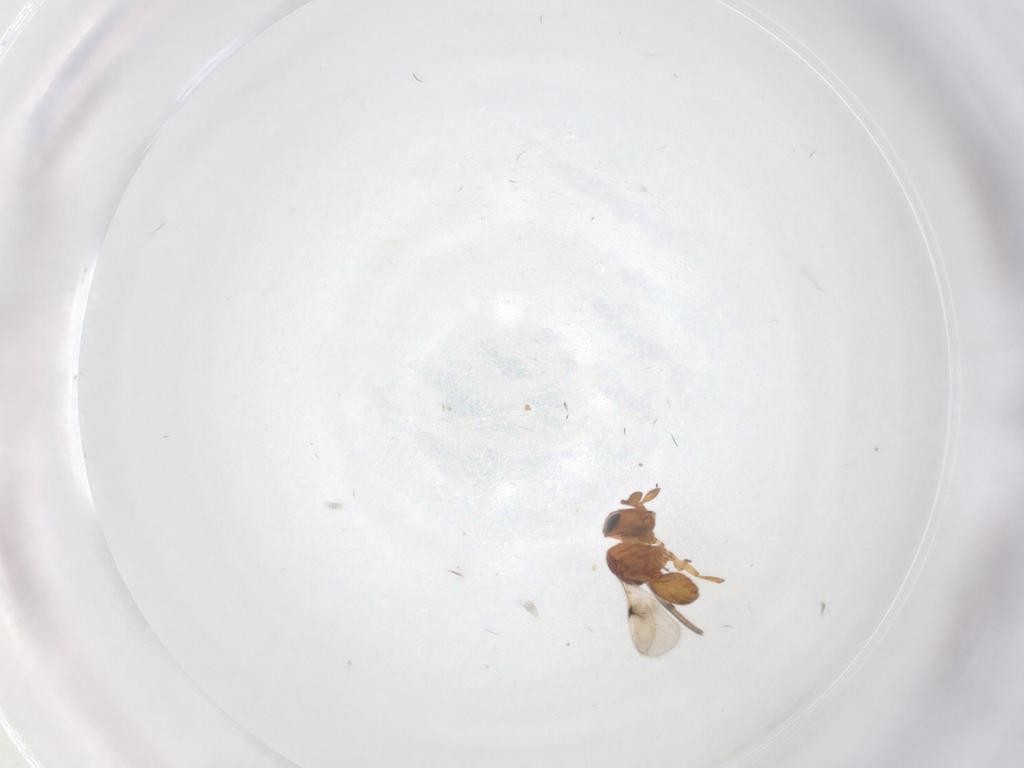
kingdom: Animalia
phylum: Arthropoda
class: Insecta
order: Hymenoptera
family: Scelionidae
